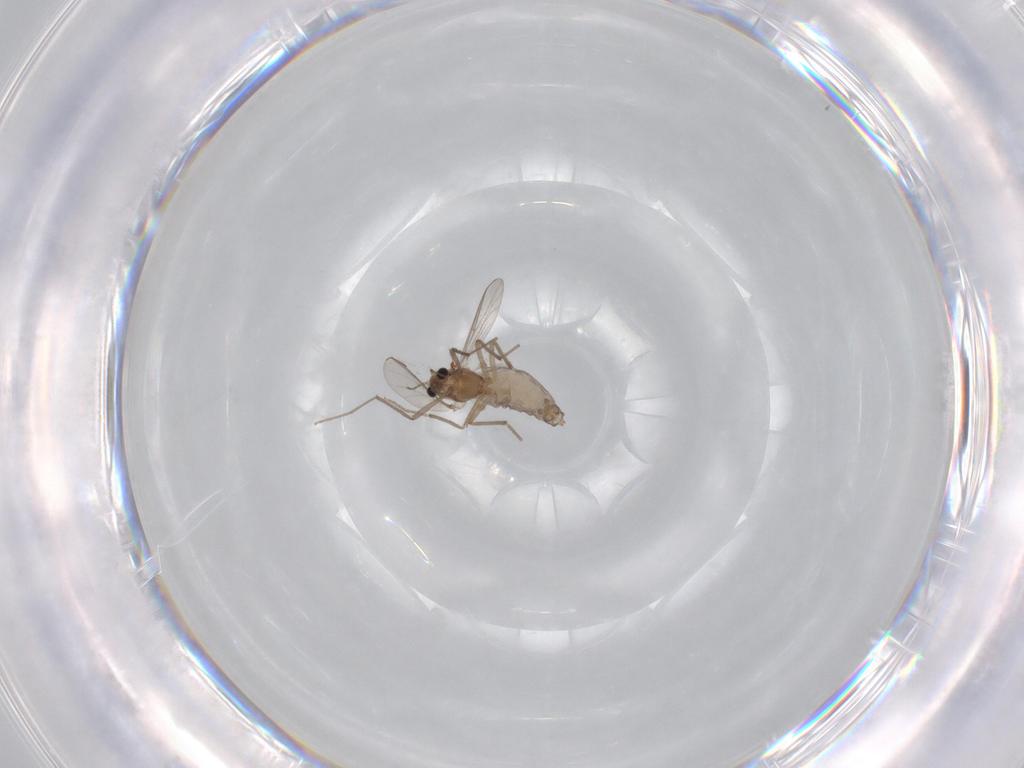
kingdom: Animalia
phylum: Arthropoda
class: Insecta
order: Diptera
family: Chironomidae
